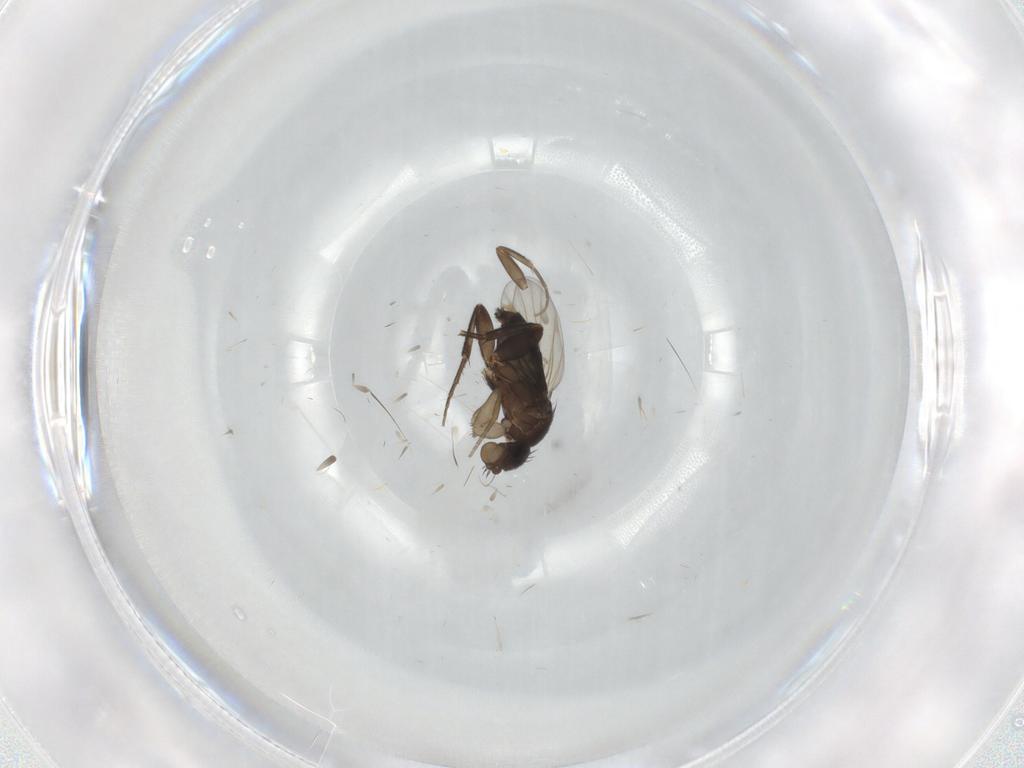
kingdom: Animalia
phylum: Arthropoda
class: Insecta
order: Diptera
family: Phoridae
